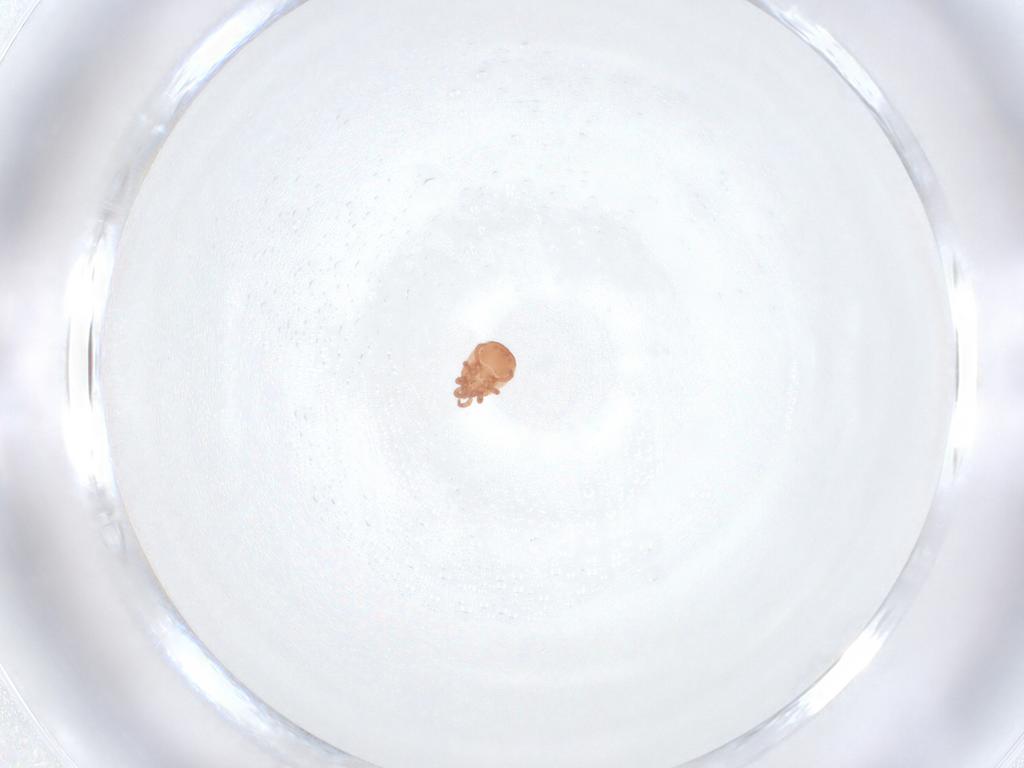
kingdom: Animalia
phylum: Arthropoda
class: Arachnida
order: Mesostigmata
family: Zerconidae
